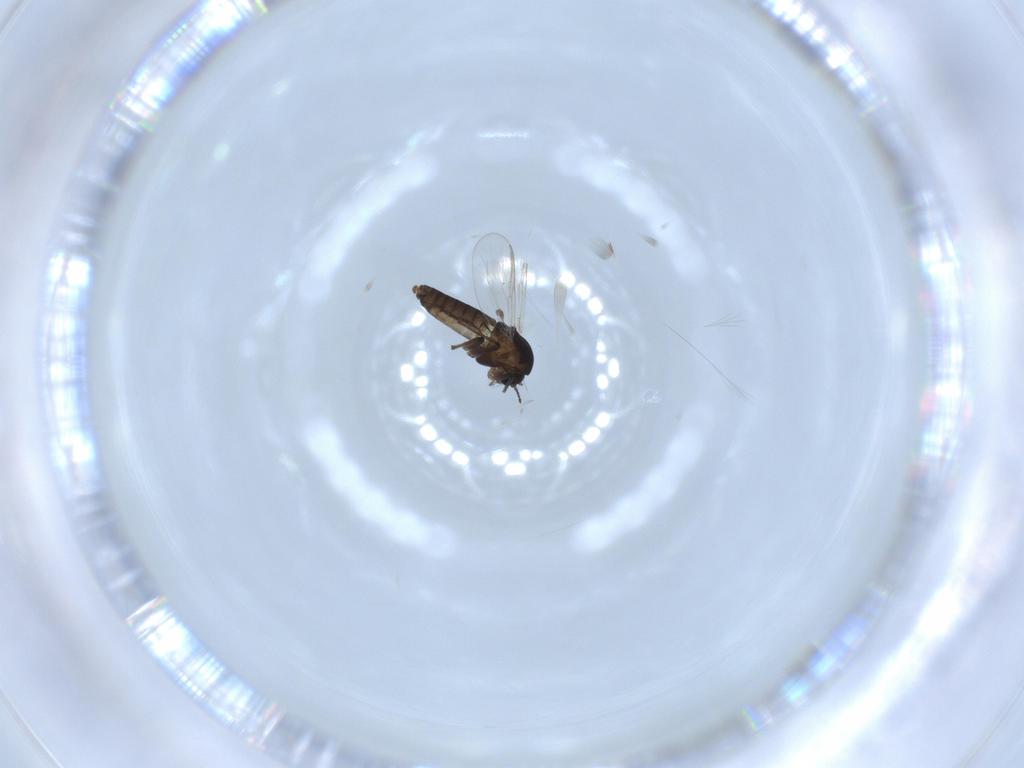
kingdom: Animalia
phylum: Arthropoda
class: Insecta
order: Diptera
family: Chironomidae
